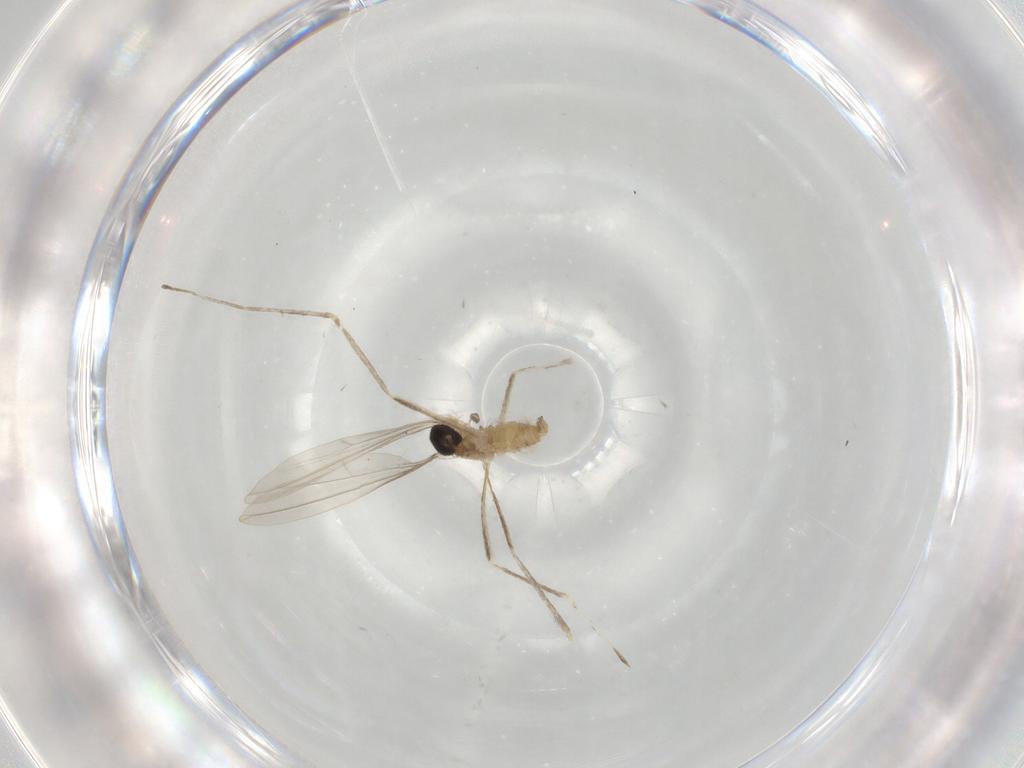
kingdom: Animalia
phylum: Arthropoda
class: Insecta
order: Diptera
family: Cecidomyiidae
